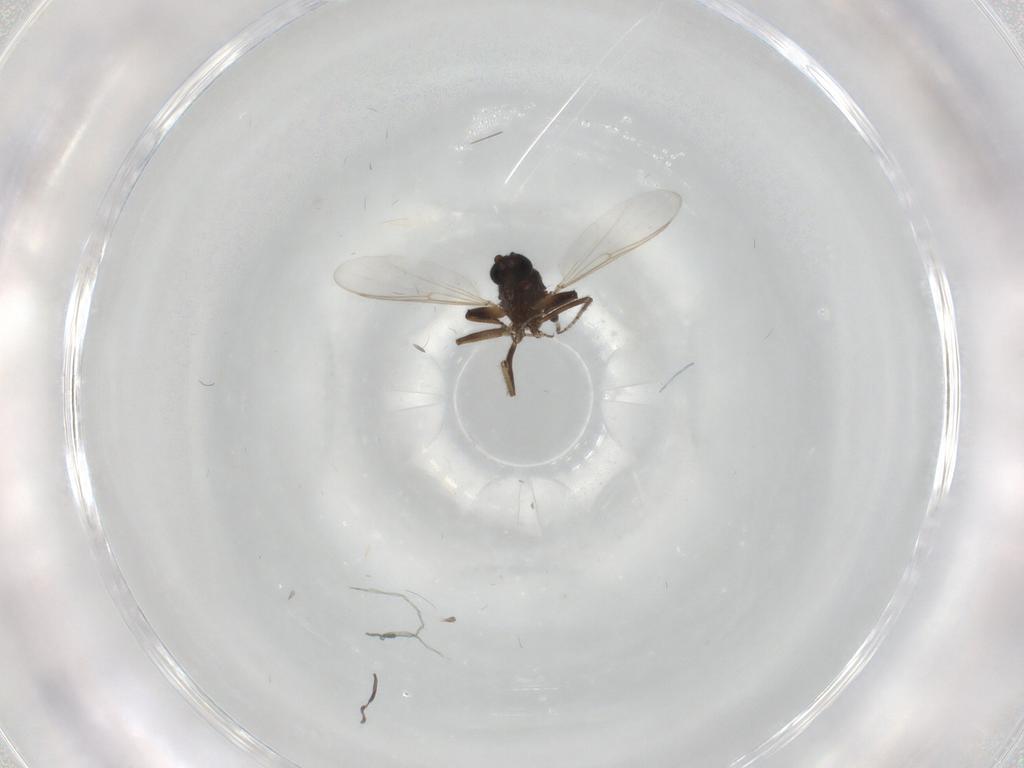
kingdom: Animalia
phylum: Arthropoda
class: Insecta
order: Diptera
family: Ceratopogonidae
